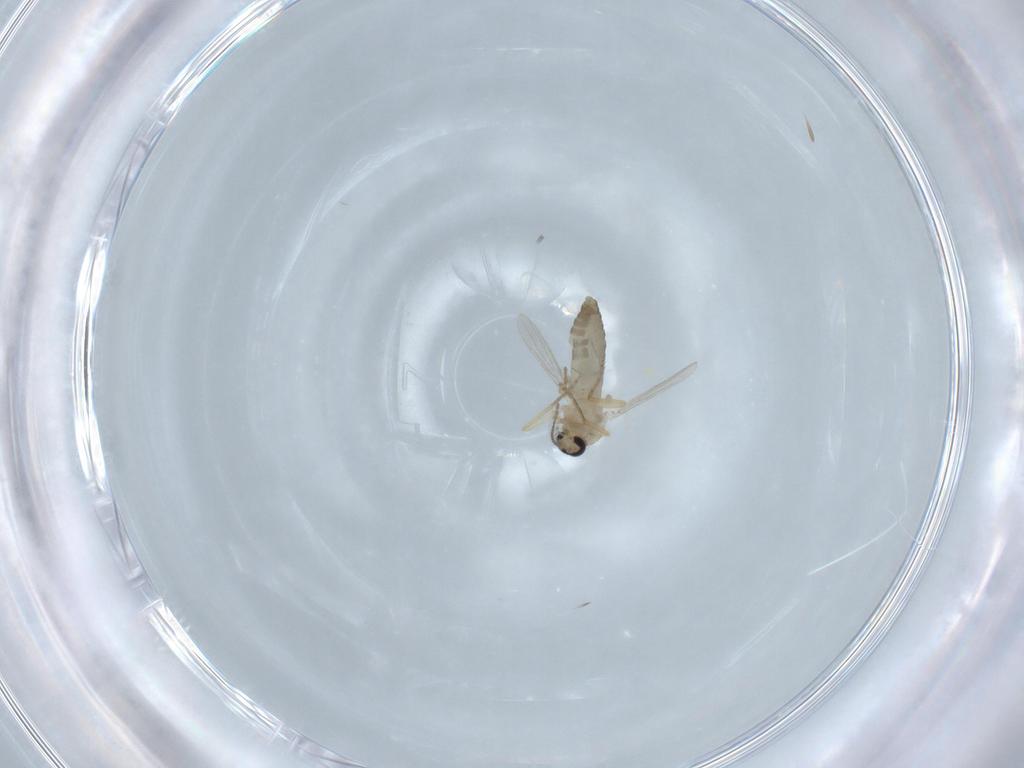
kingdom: Animalia
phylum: Arthropoda
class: Insecta
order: Diptera
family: Ceratopogonidae
